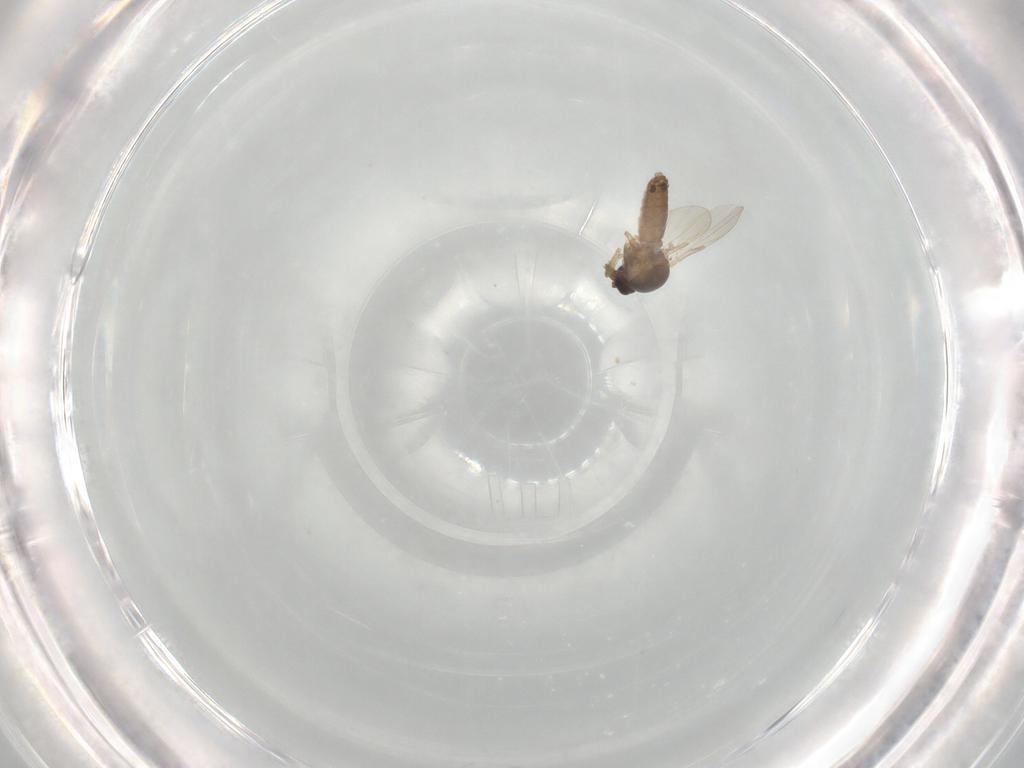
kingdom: Animalia
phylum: Arthropoda
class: Insecta
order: Diptera
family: Ceratopogonidae
